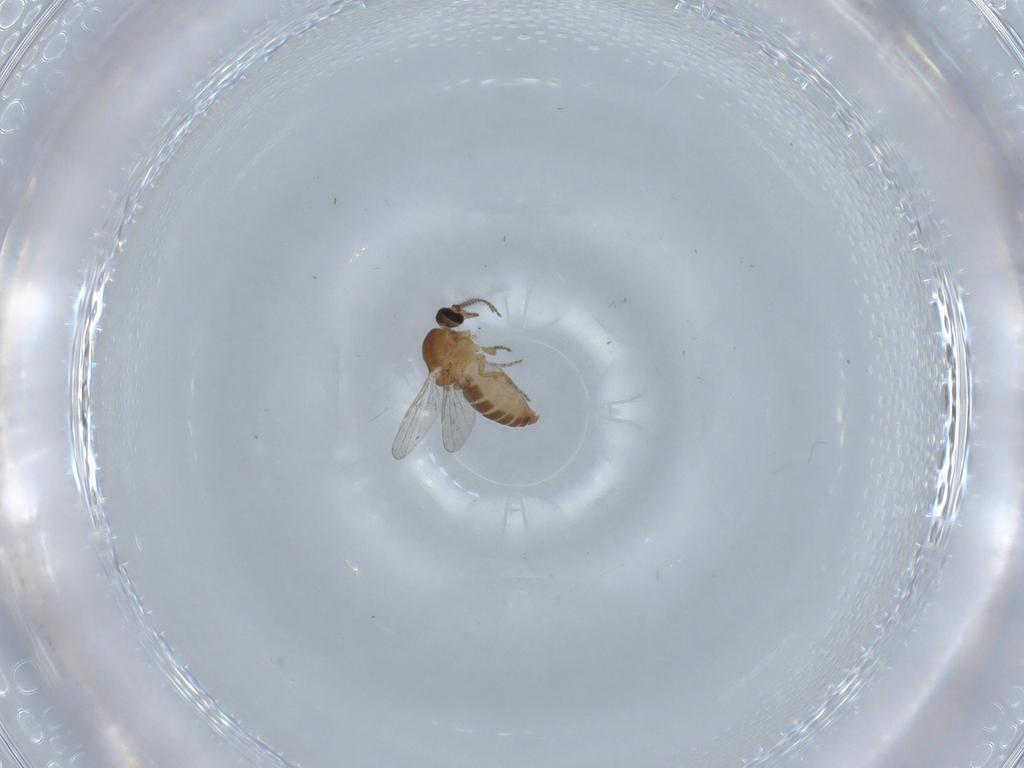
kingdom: Animalia
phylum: Arthropoda
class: Insecta
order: Diptera
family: Ceratopogonidae
